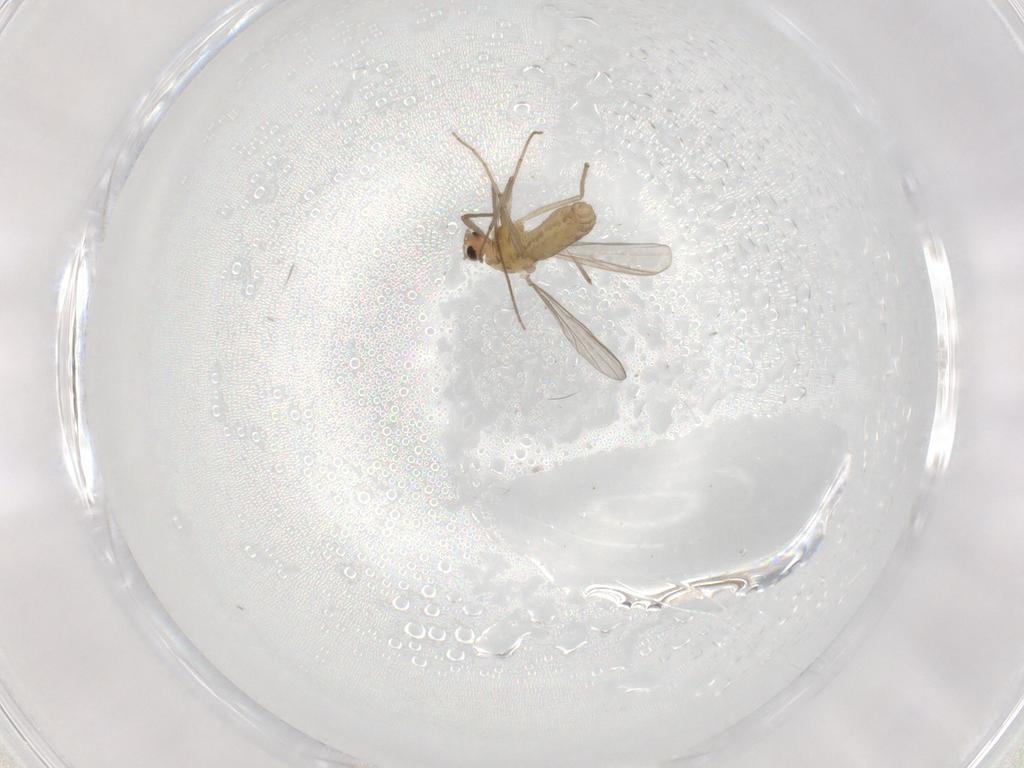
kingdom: Animalia
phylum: Arthropoda
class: Insecta
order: Diptera
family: Chironomidae
